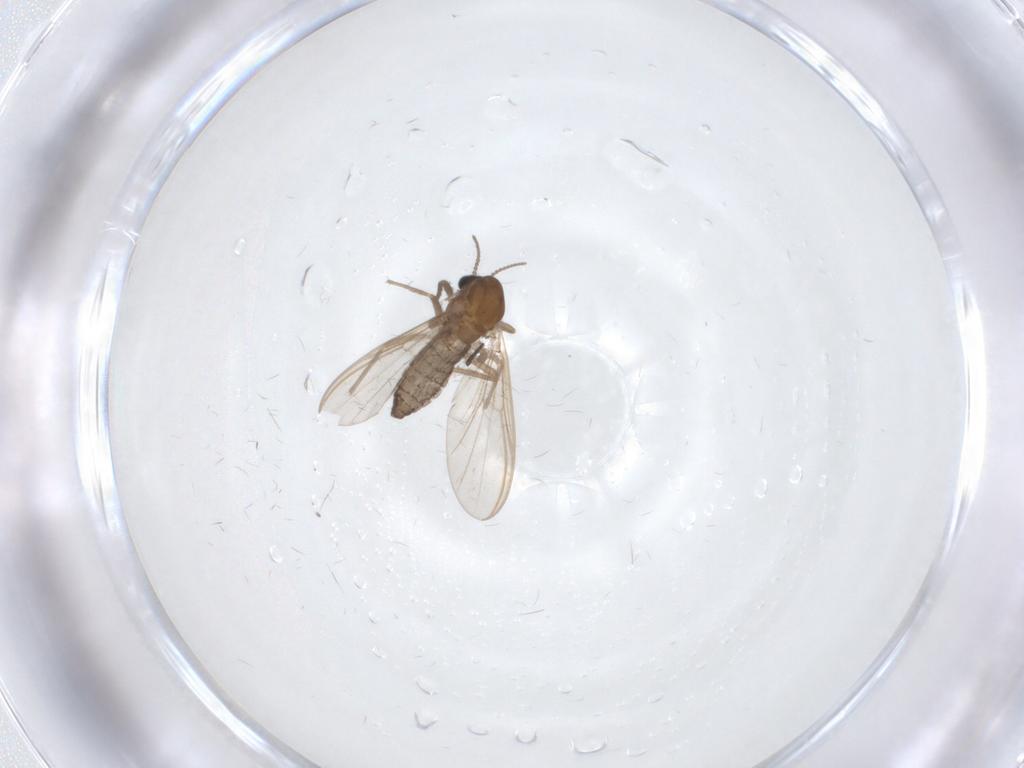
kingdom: Animalia
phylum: Arthropoda
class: Insecta
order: Diptera
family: Chironomidae
